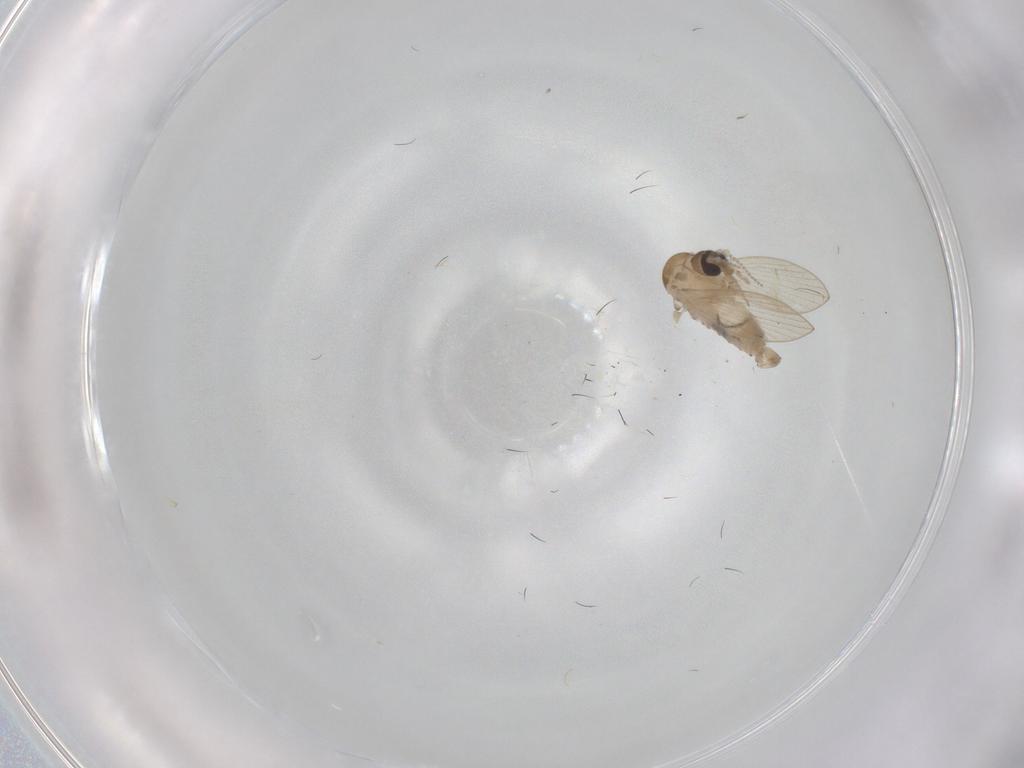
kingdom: Animalia
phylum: Arthropoda
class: Insecta
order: Diptera
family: Psychodidae
